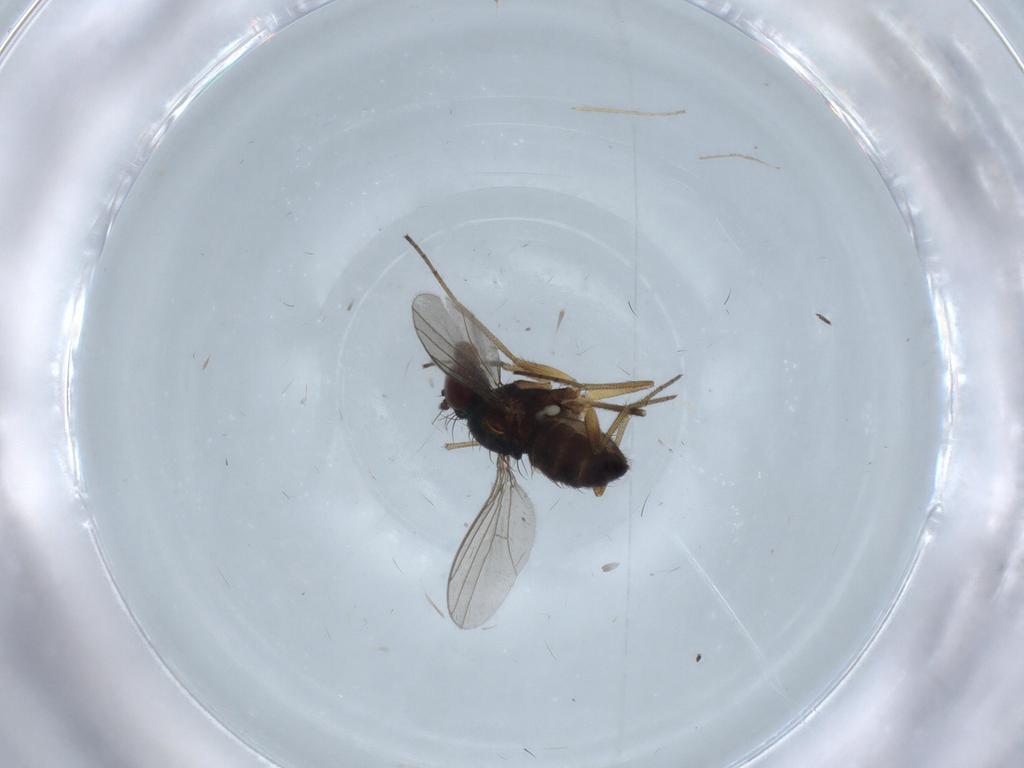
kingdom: Animalia
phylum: Arthropoda
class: Insecta
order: Diptera
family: Dolichopodidae
